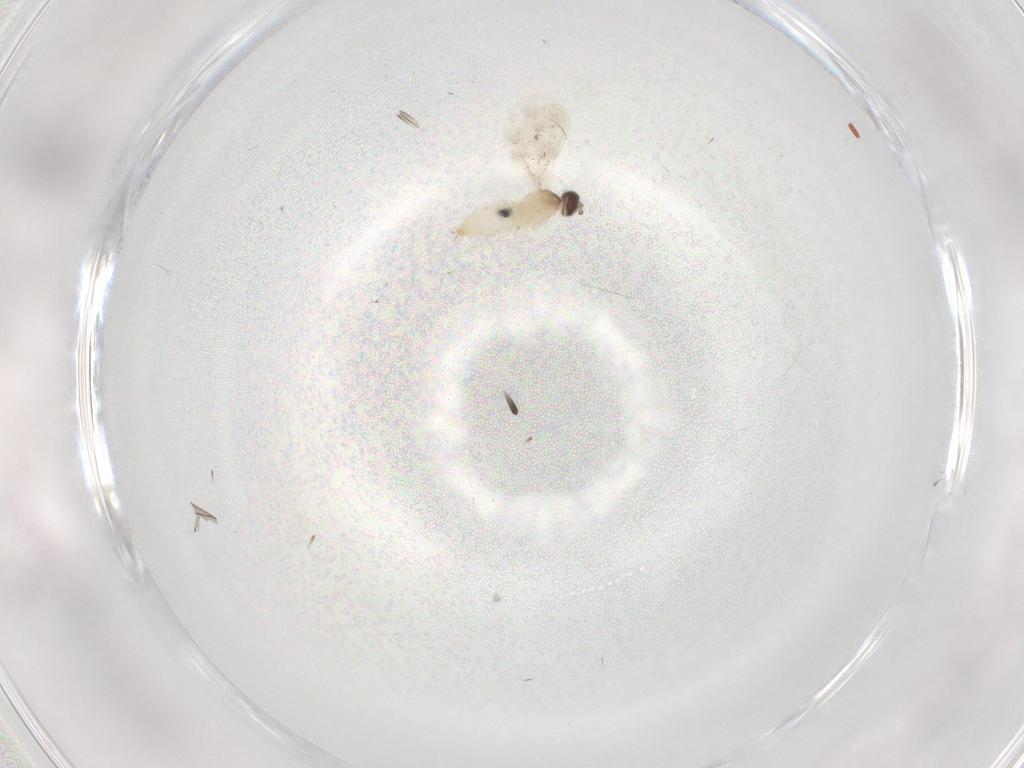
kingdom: Animalia
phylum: Arthropoda
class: Insecta
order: Diptera
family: Cecidomyiidae
